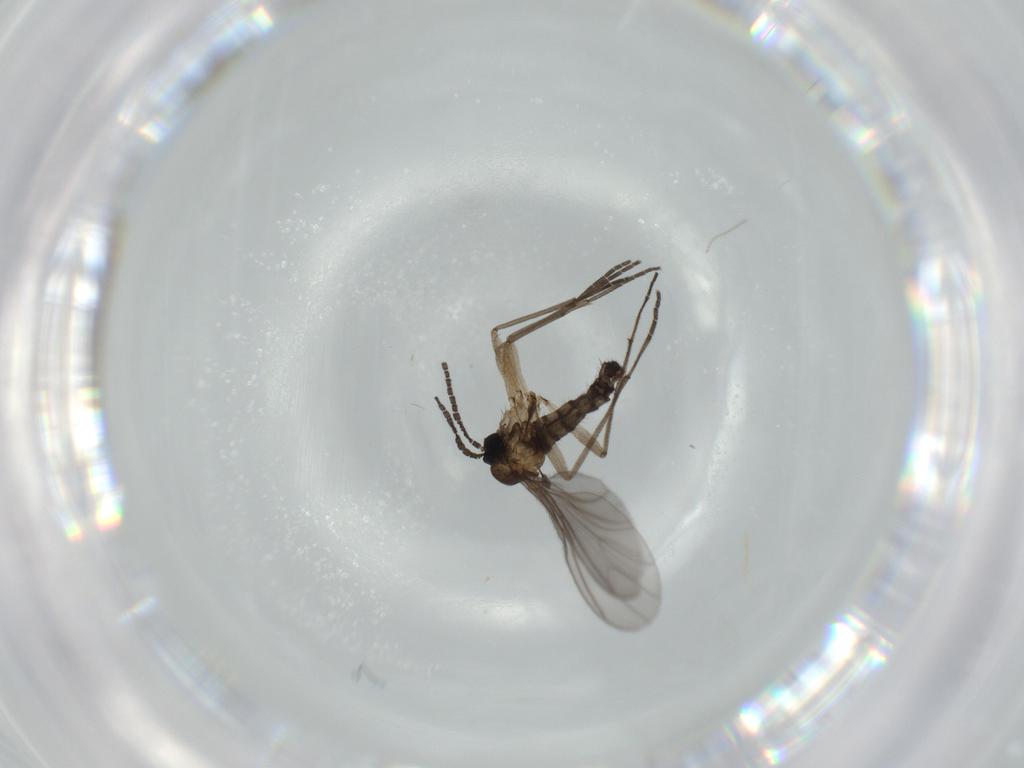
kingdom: Animalia
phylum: Arthropoda
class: Insecta
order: Diptera
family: Sciaridae
